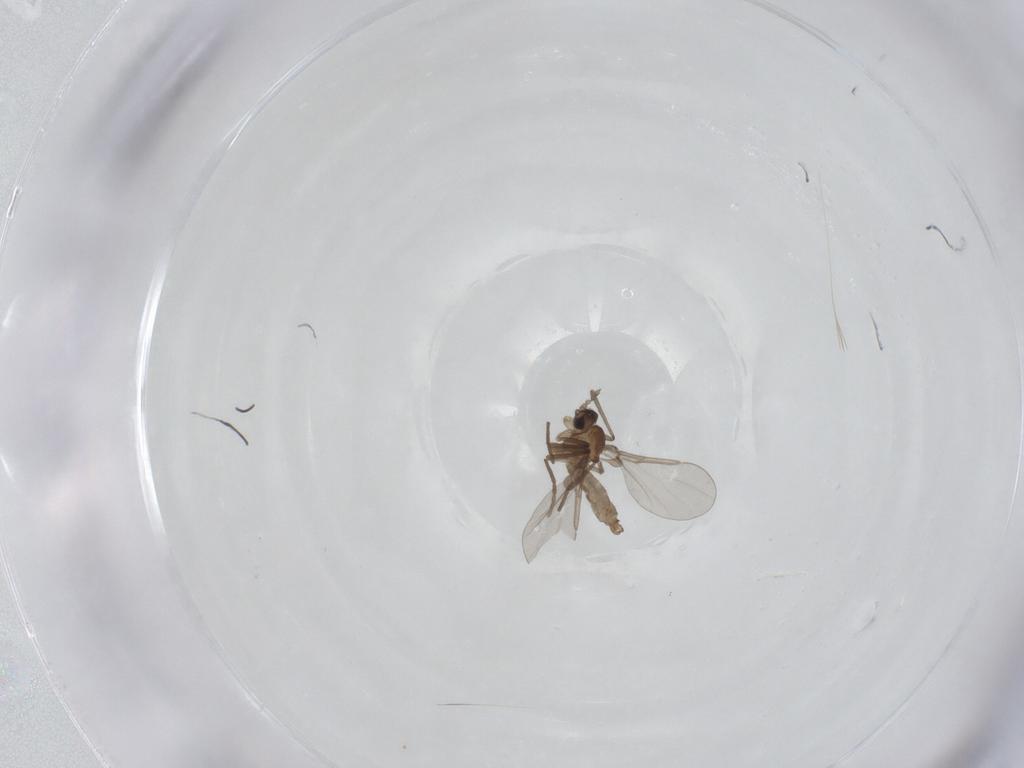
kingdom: Animalia
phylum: Arthropoda
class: Insecta
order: Diptera
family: Cecidomyiidae
